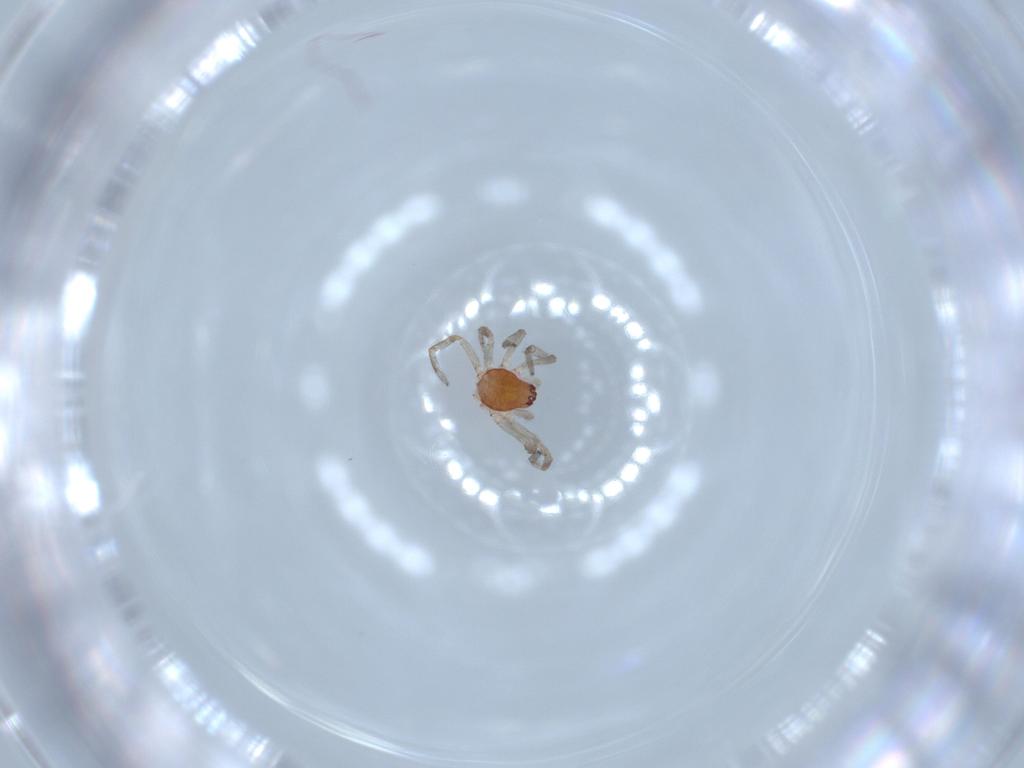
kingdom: Animalia
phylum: Arthropoda
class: Arachnida
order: Araneae
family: Dictynidae
